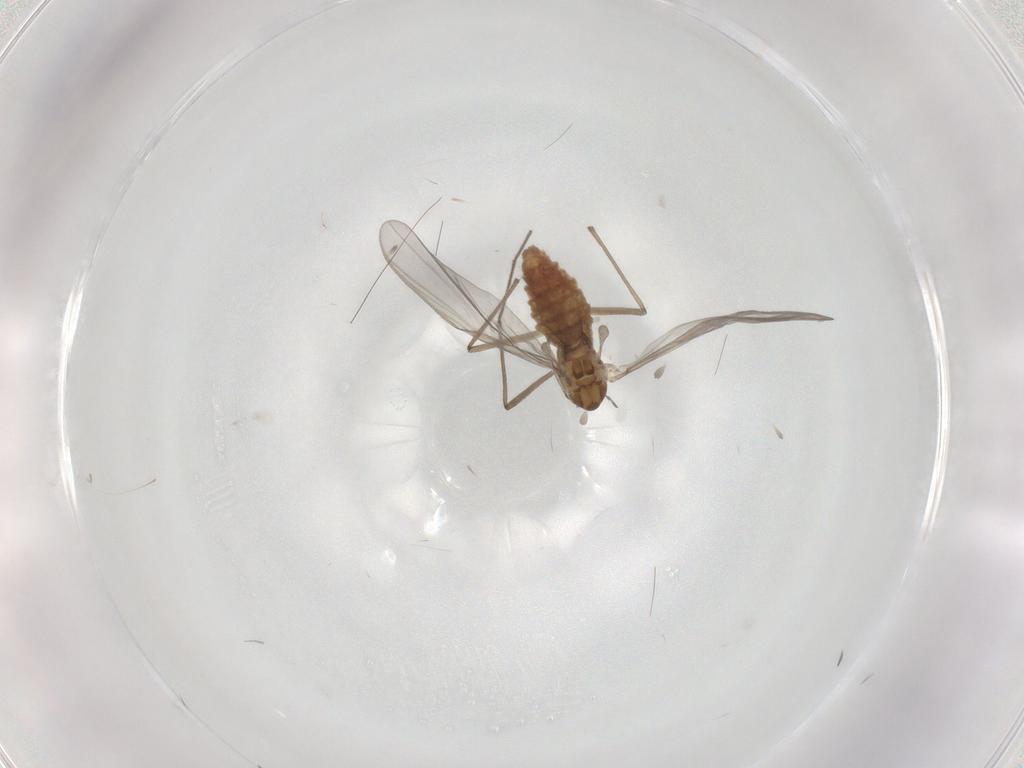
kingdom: Animalia
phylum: Arthropoda
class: Insecta
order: Diptera
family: Chironomidae
